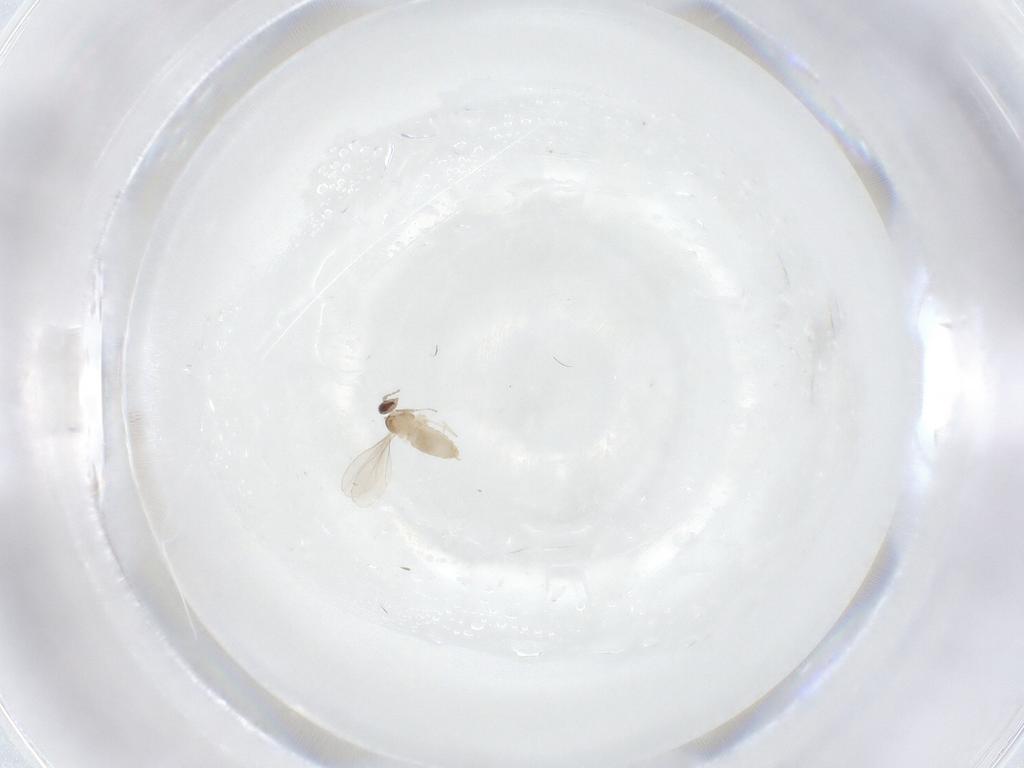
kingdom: Animalia
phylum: Arthropoda
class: Insecta
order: Diptera
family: Cecidomyiidae
